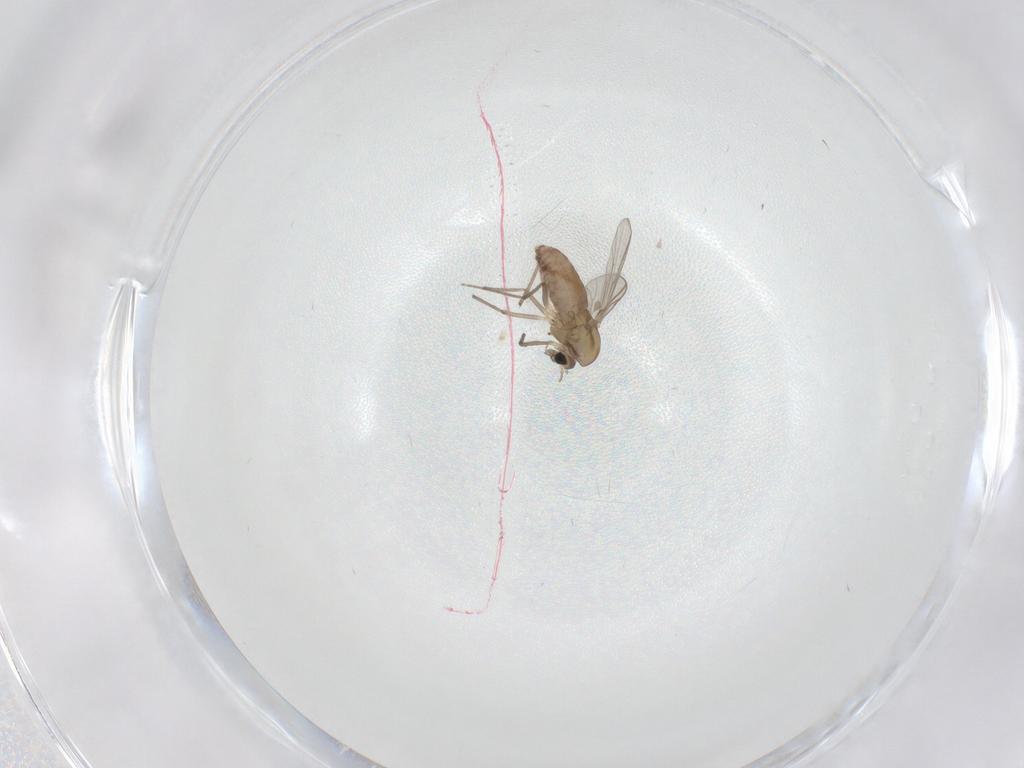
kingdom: Animalia
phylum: Arthropoda
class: Insecta
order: Diptera
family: Chironomidae
